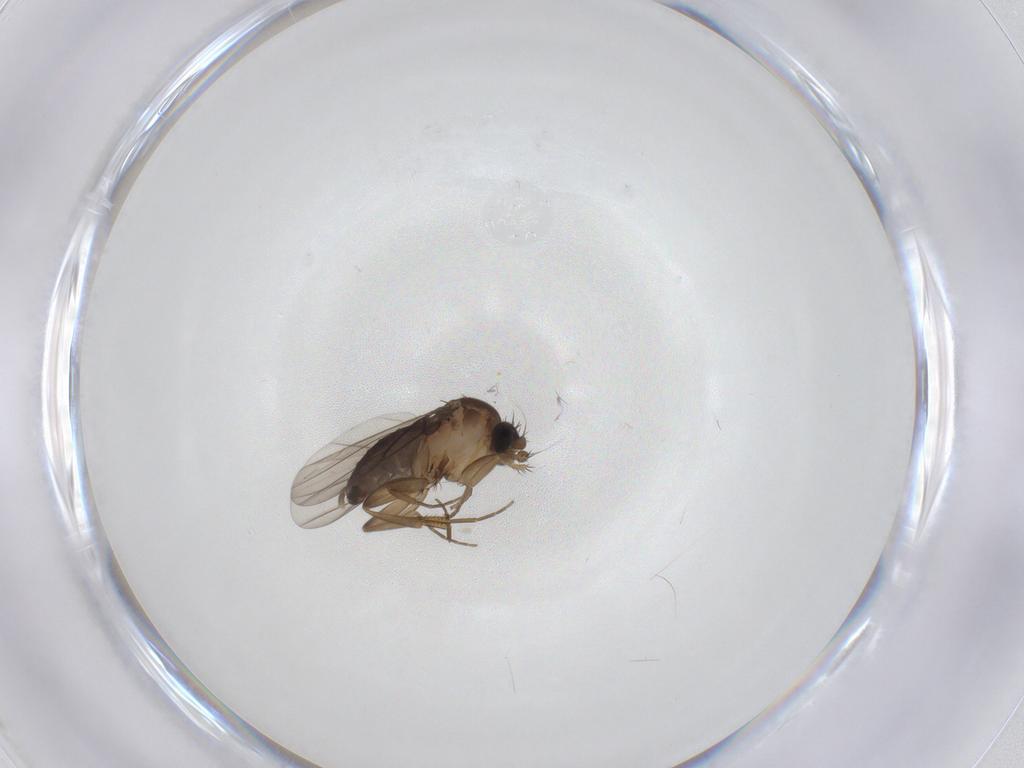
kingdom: Animalia
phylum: Arthropoda
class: Insecta
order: Diptera
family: Phoridae
